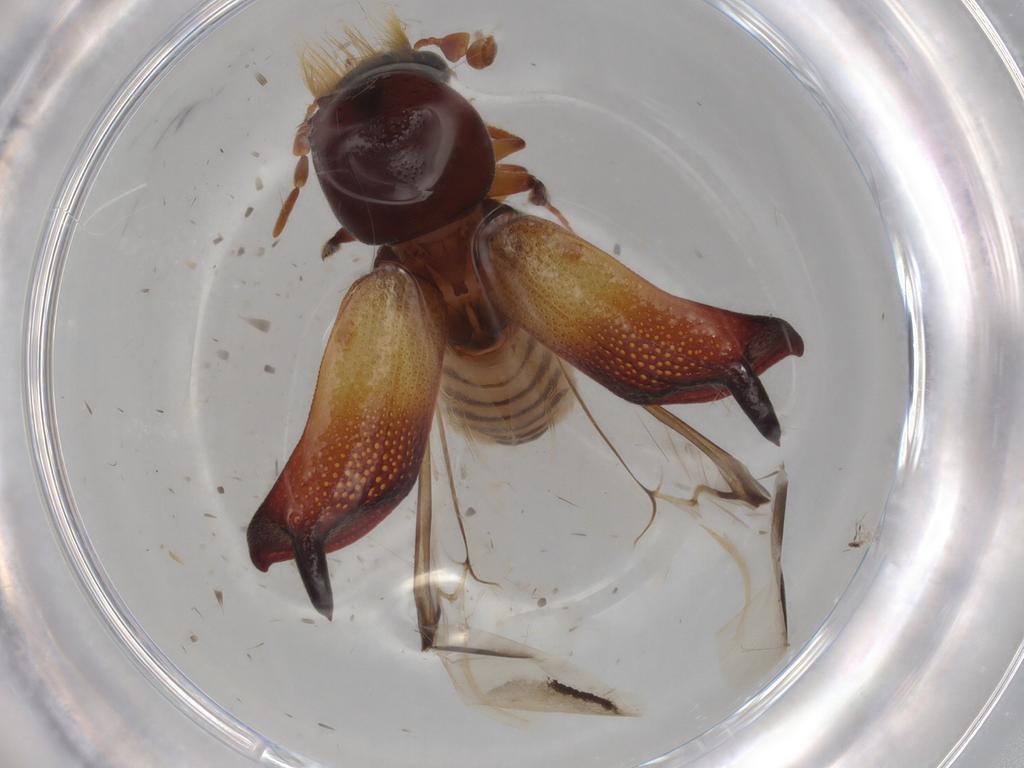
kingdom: Animalia
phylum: Arthropoda
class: Insecta
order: Coleoptera
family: Bostrichidae
